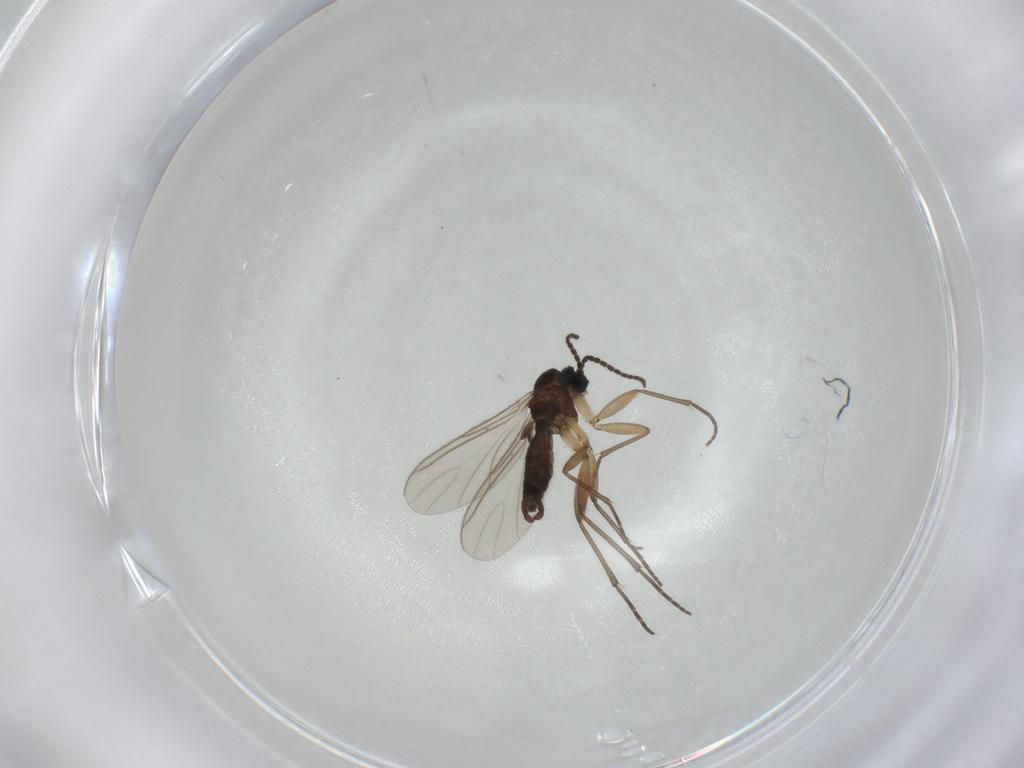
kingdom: Animalia
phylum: Arthropoda
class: Insecta
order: Diptera
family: Sciaridae
